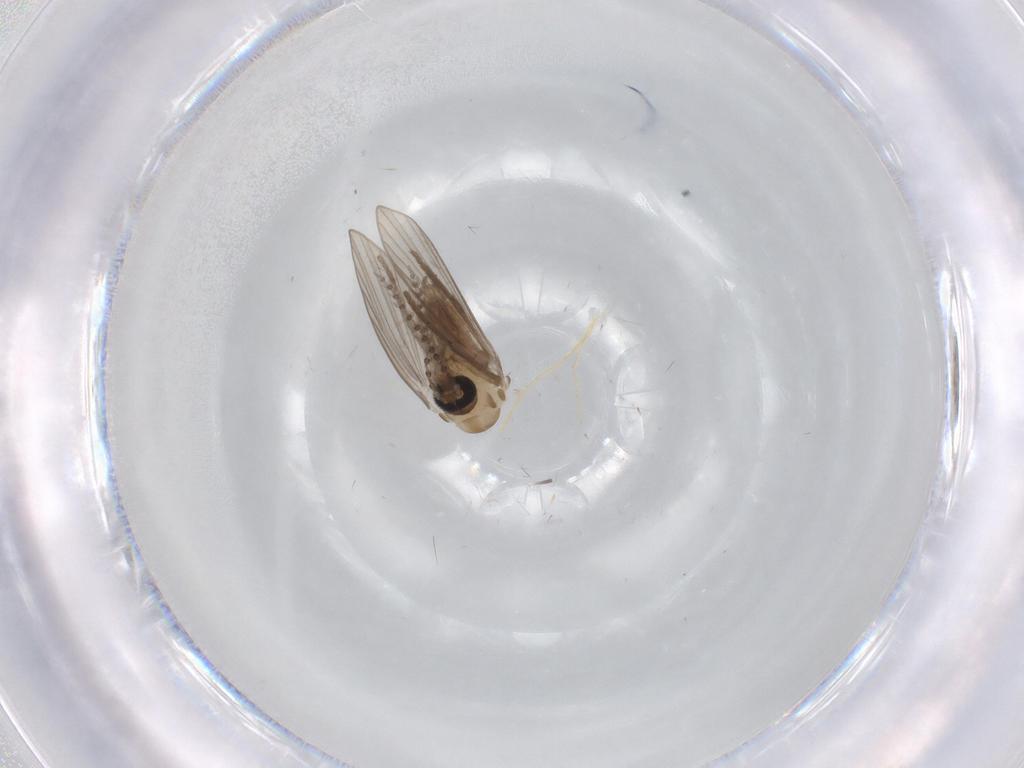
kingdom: Animalia
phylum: Arthropoda
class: Insecta
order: Diptera
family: Psychodidae
